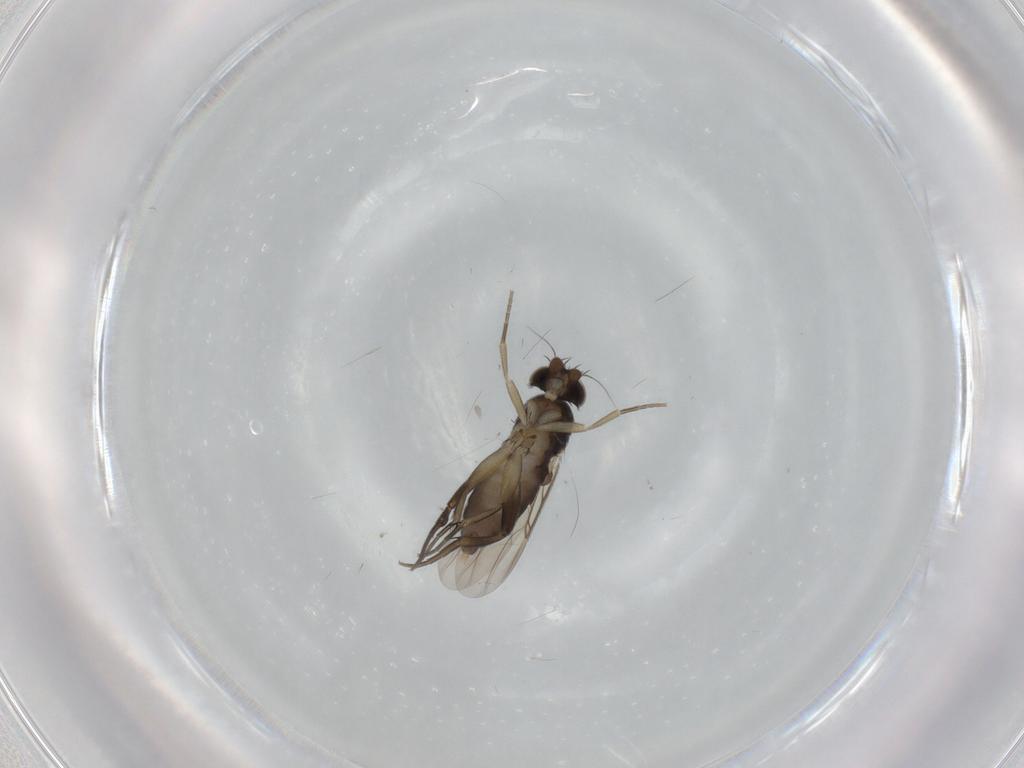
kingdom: Animalia
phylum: Arthropoda
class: Insecta
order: Diptera
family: Phoridae
